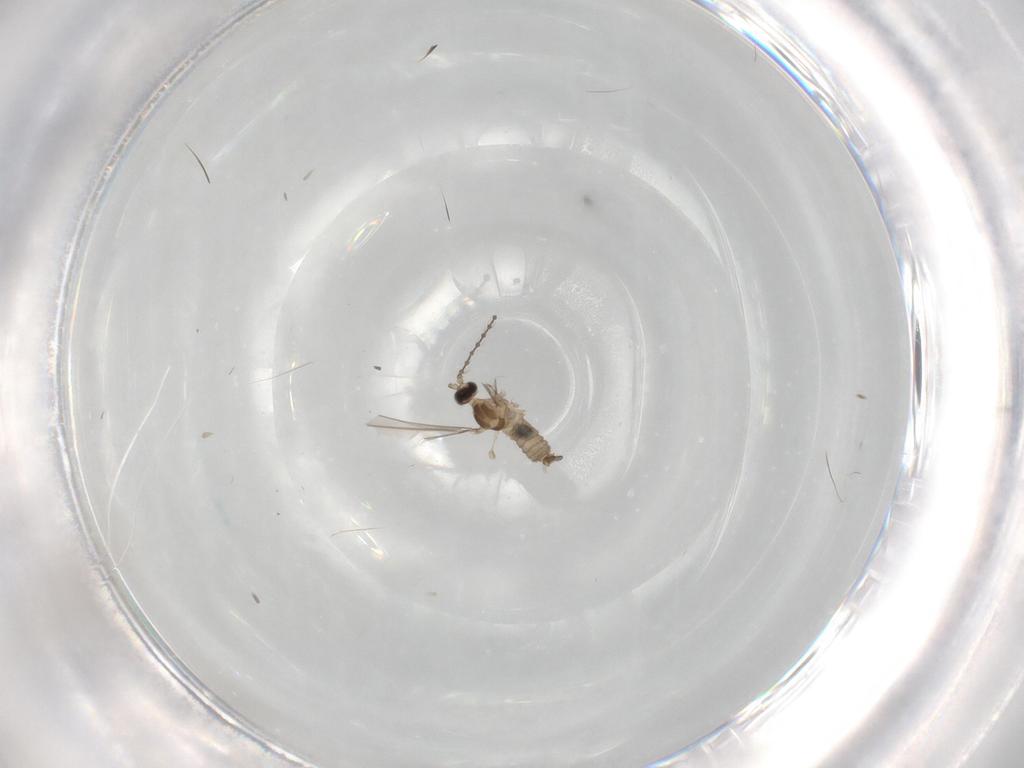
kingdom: Animalia
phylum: Arthropoda
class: Insecta
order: Diptera
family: Cecidomyiidae
